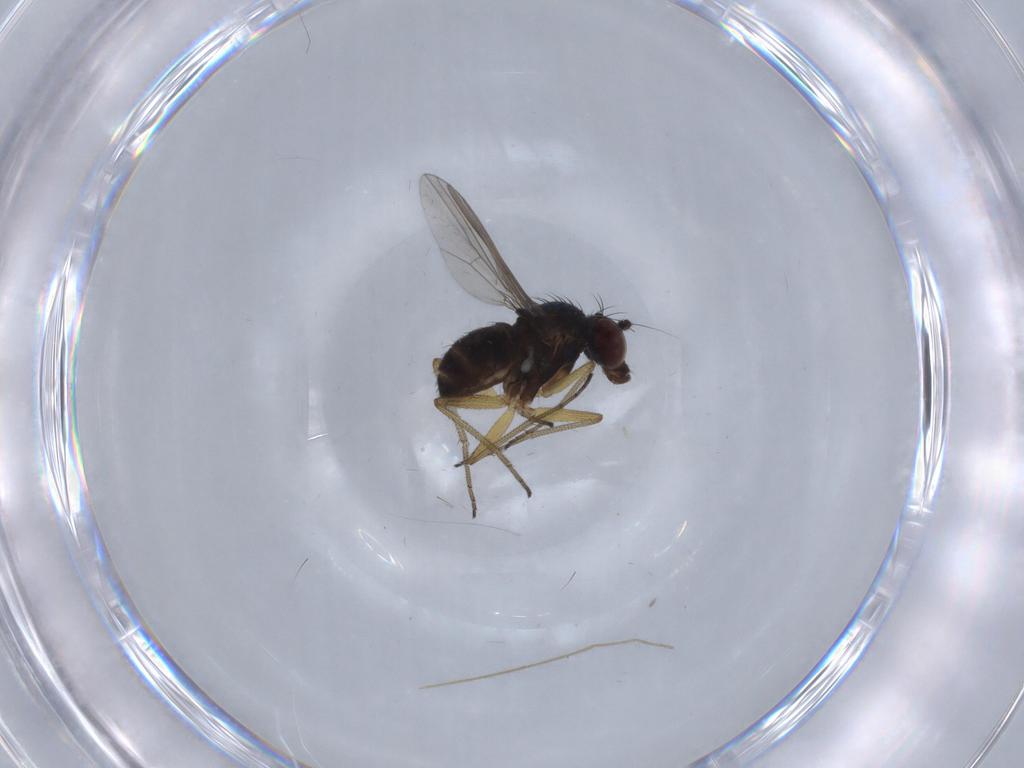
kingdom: Animalia
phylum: Arthropoda
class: Insecta
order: Diptera
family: Dolichopodidae
